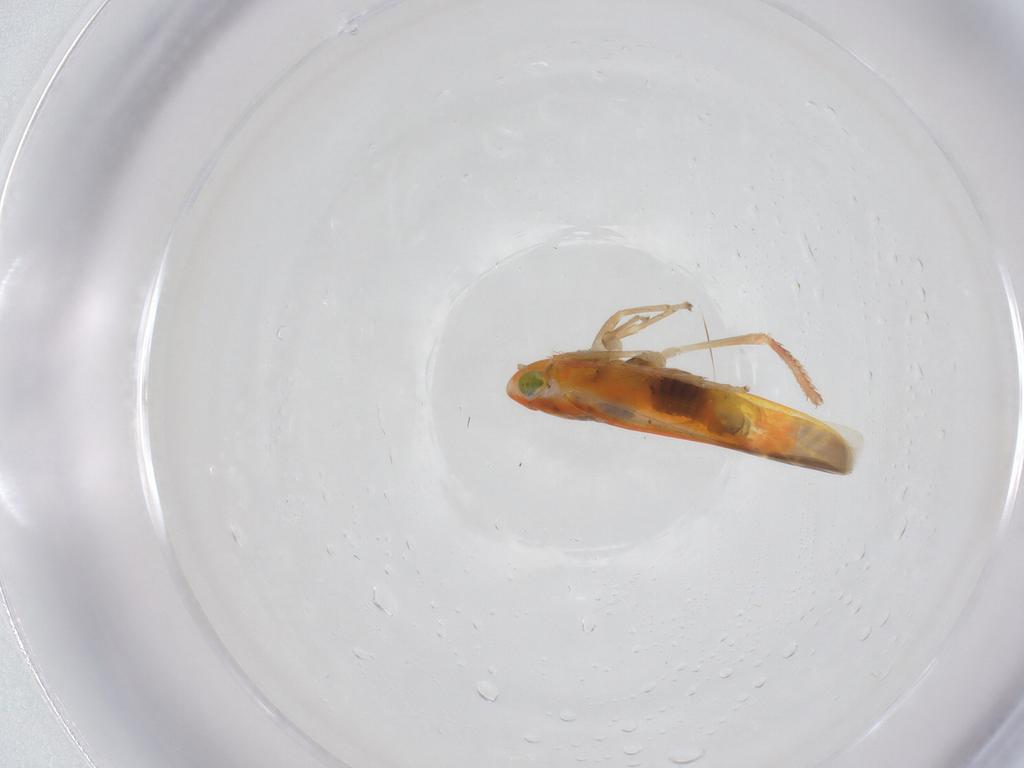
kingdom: Animalia
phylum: Arthropoda
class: Insecta
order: Hemiptera
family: Cicadellidae
